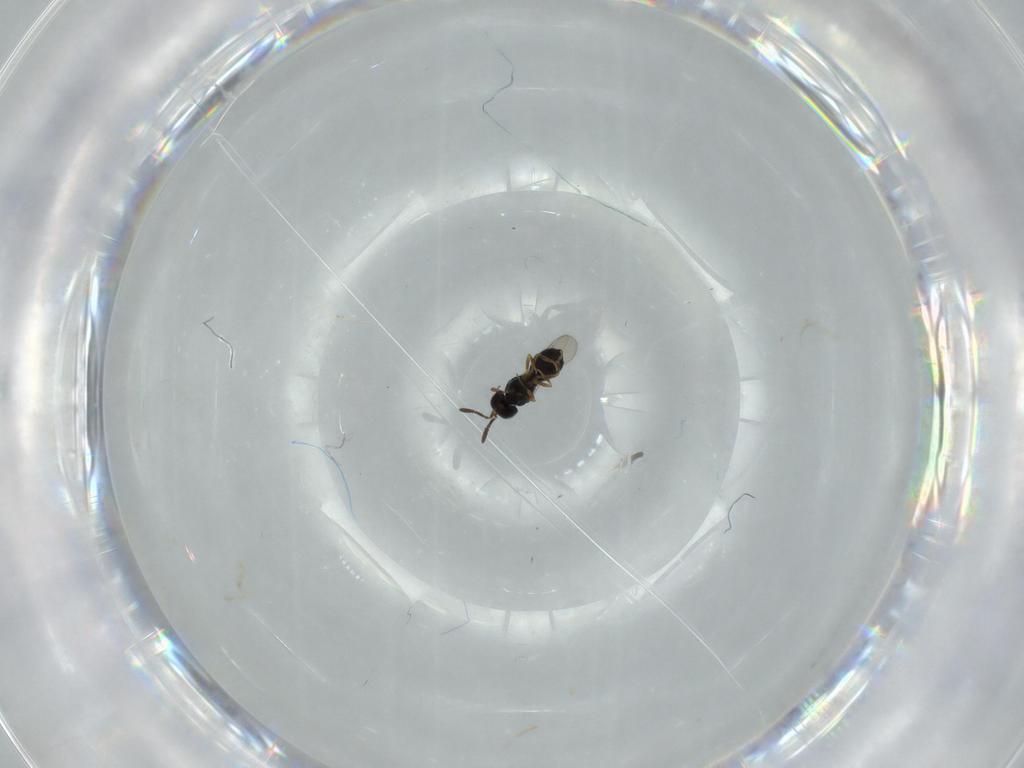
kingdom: Animalia
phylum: Arthropoda
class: Insecta
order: Hymenoptera
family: Scelionidae
